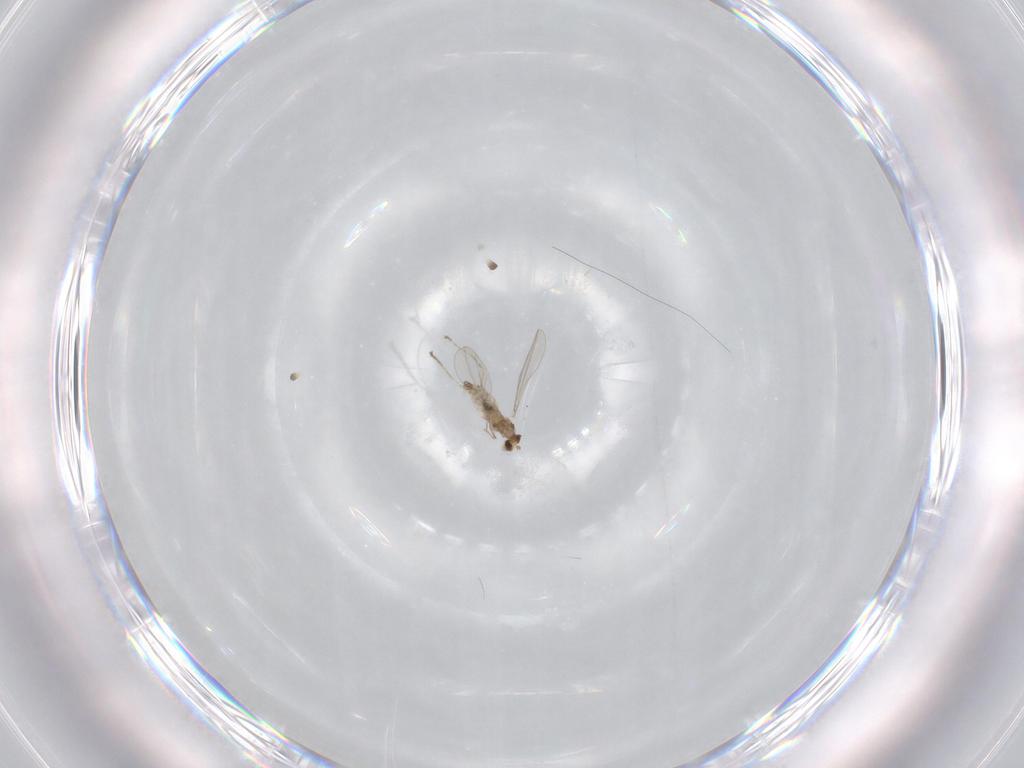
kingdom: Animalia
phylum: Arthropoda
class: Insecta
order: Diptera
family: Cecidomyiidae
